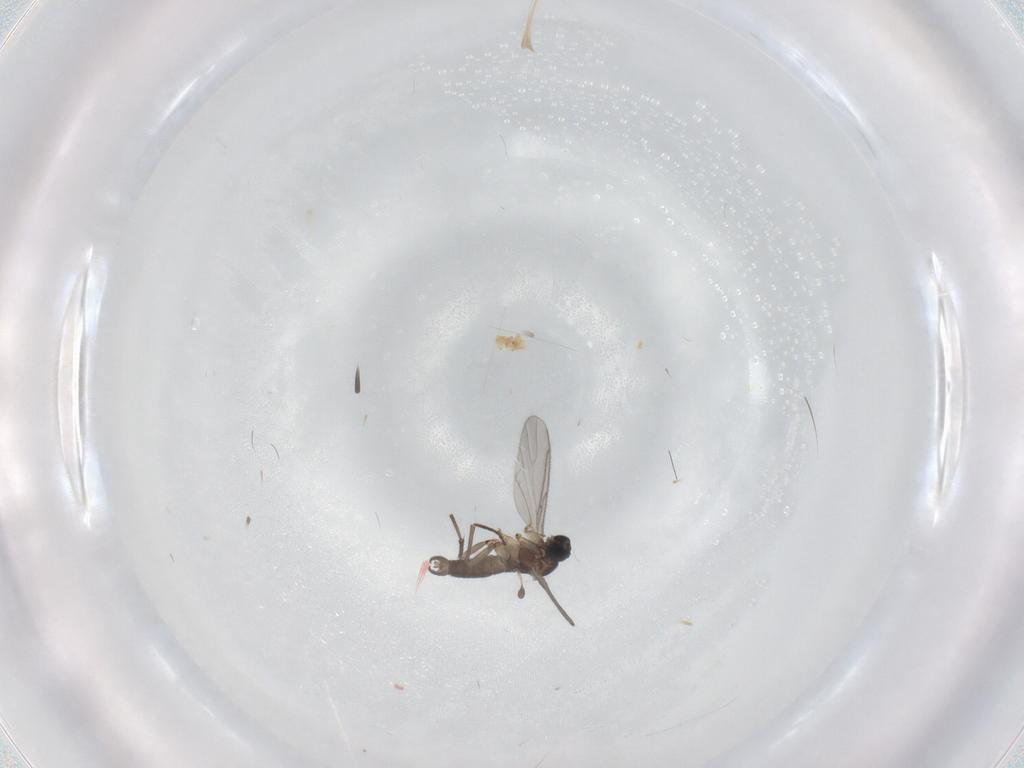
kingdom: Animalia
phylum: Arthropoda
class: Insecta
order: Diptera
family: Sciaridae
